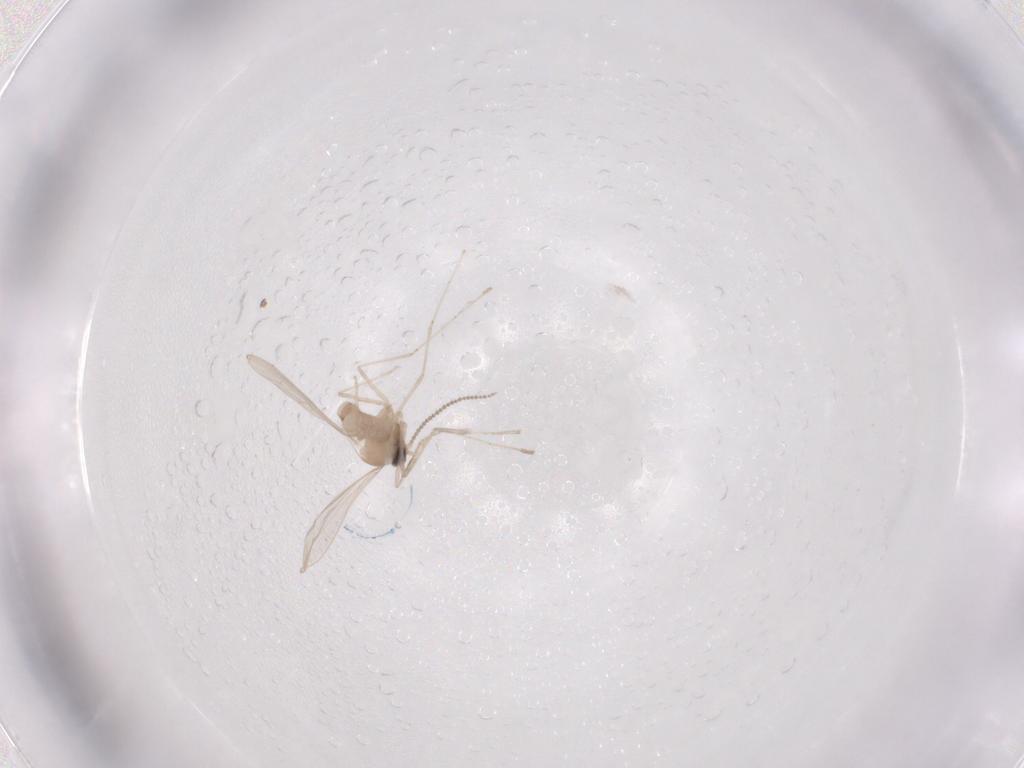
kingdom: Animalia
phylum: Arthropoda
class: Insecta
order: Diptera
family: Cecidomyiidae
